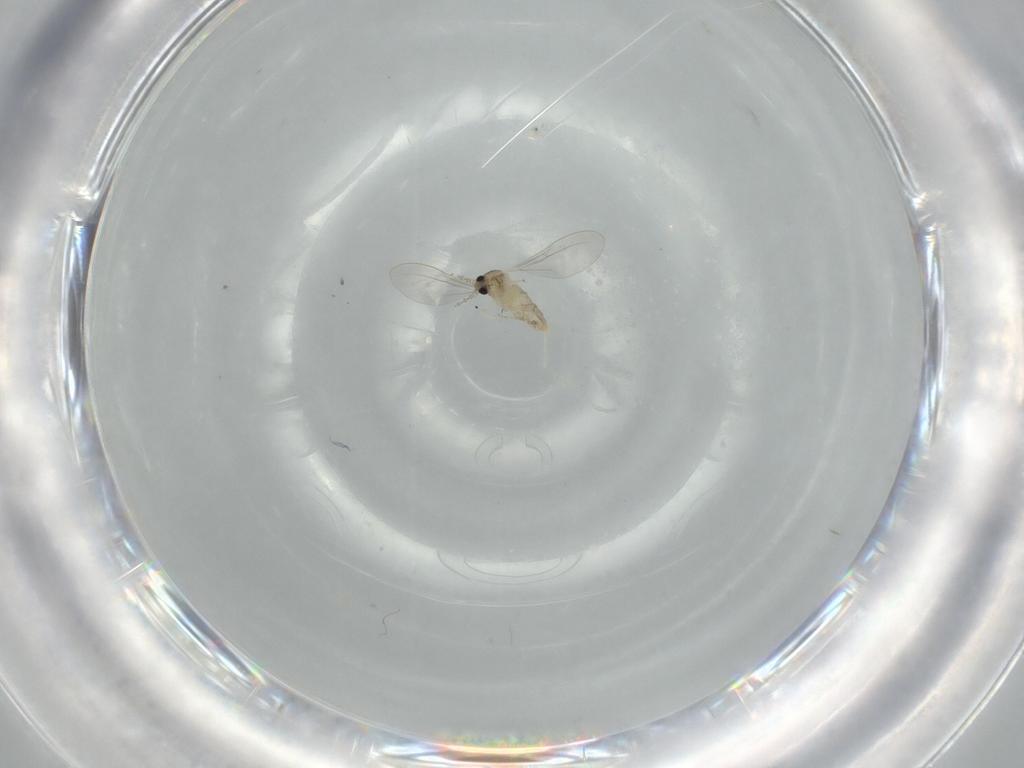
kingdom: Animalia
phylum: Arthropoda
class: Insecta
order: Diptera
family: Cecidomyiidae
